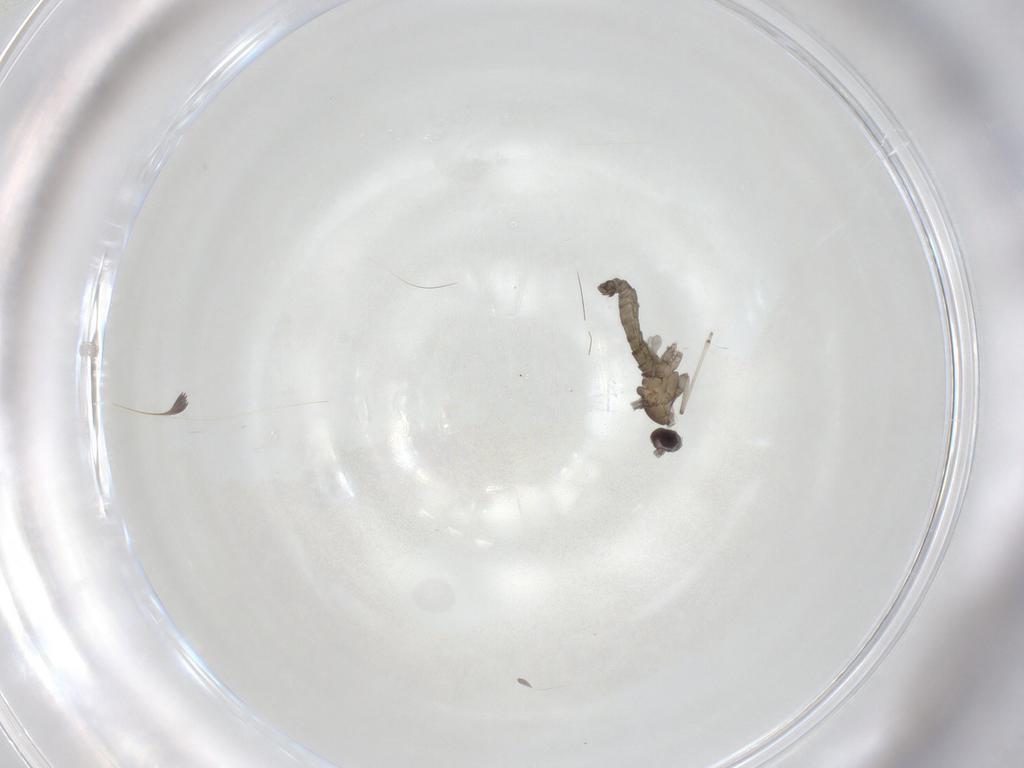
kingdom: Animalia
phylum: Arthropoda
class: Insecta
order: Diptera
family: Cecidomyiidae
